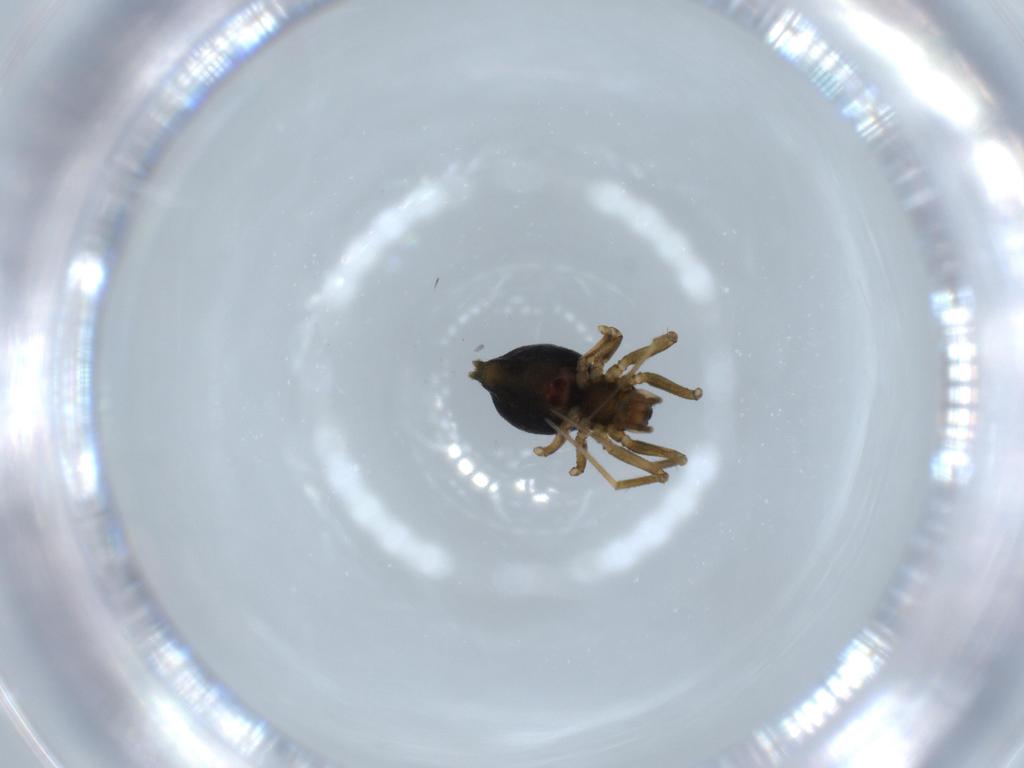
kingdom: Animalia
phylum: Arthropoda
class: Arachnida
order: Araneae
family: Linyphiidae
